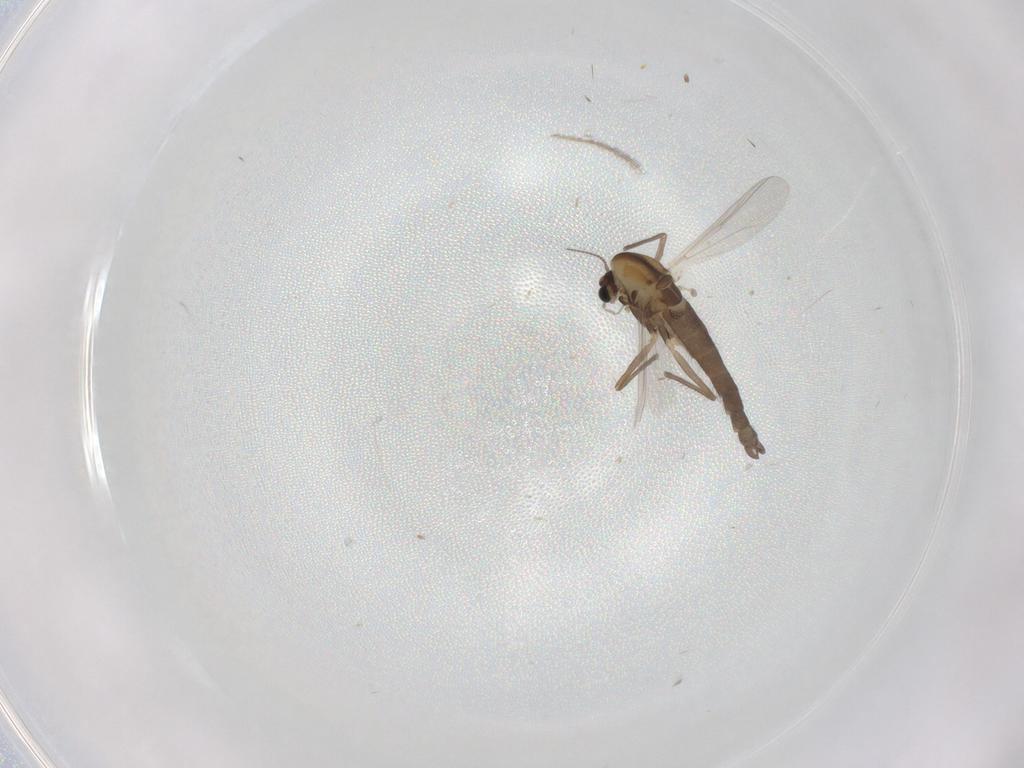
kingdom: Animalia
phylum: Arthropoda
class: Insecta
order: Diptera
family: Chironomidae
